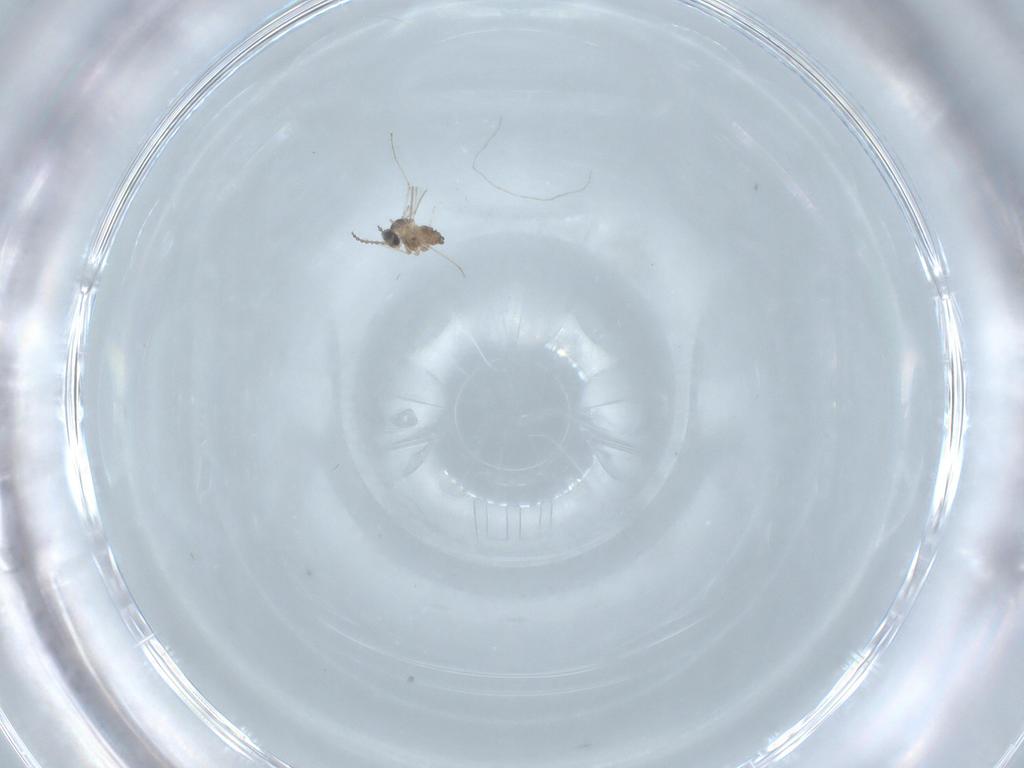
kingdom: Animalia
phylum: Arthropoda
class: Insecta
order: Diptera
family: Cecidomyiidae
